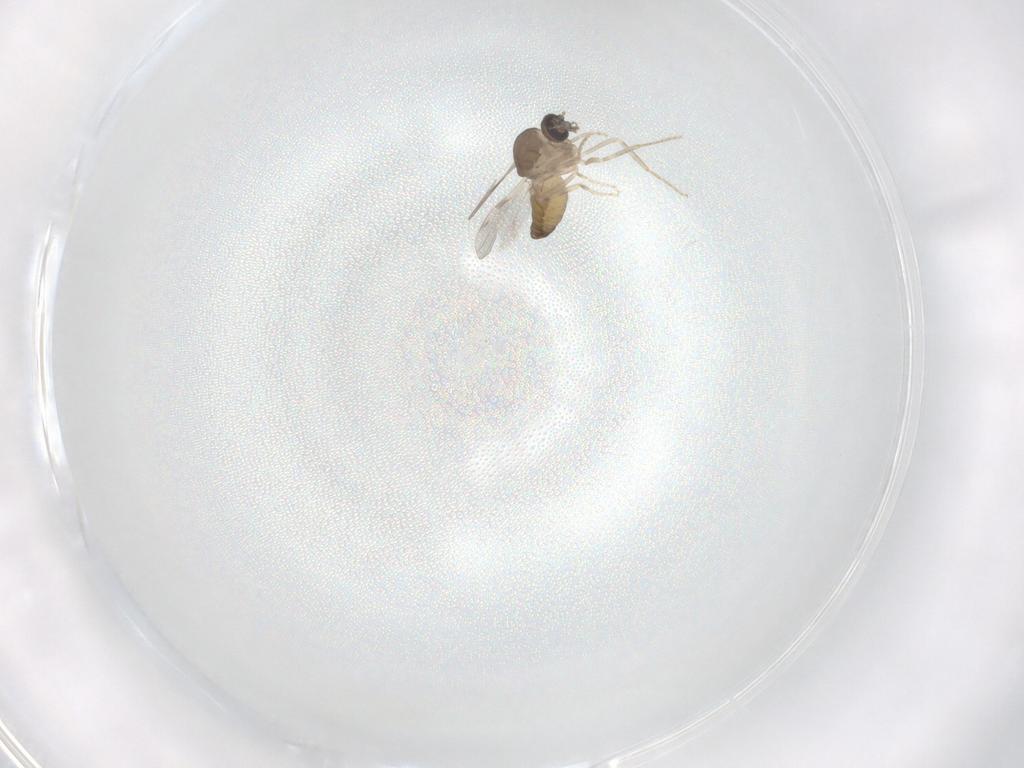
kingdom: Animalia
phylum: Arthropoda
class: Insecta
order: Diptera
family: Ceratopogonidae
